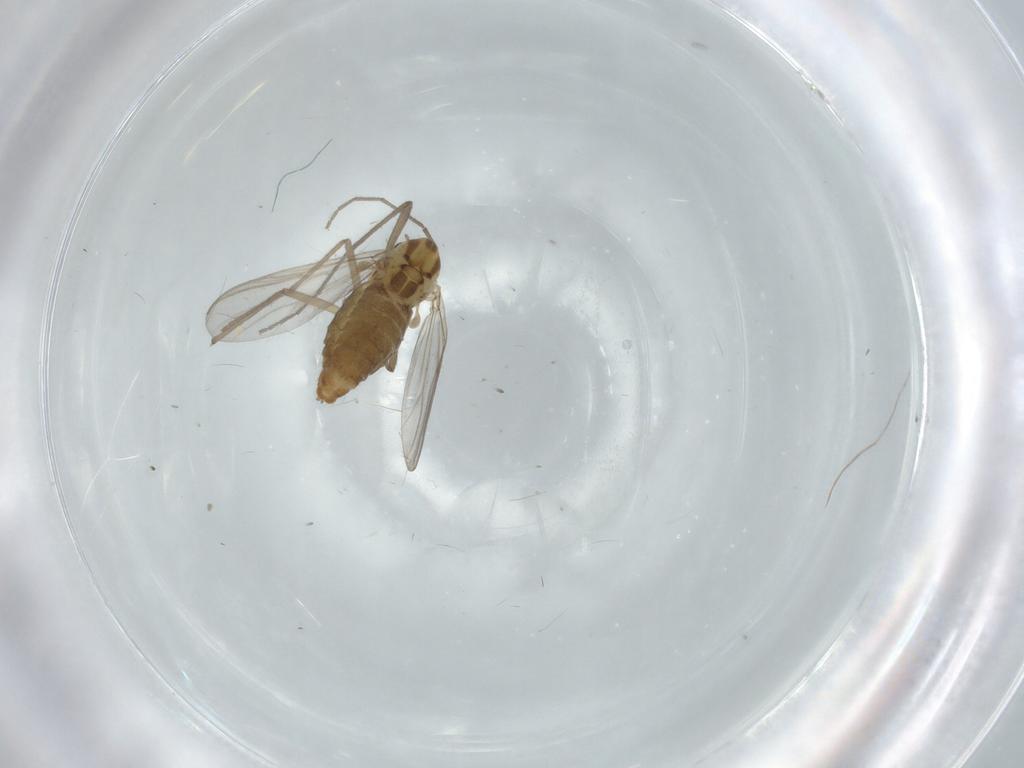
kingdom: Animalia
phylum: Arthropoda
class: Insecta
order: Diptera
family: Chironomidae
